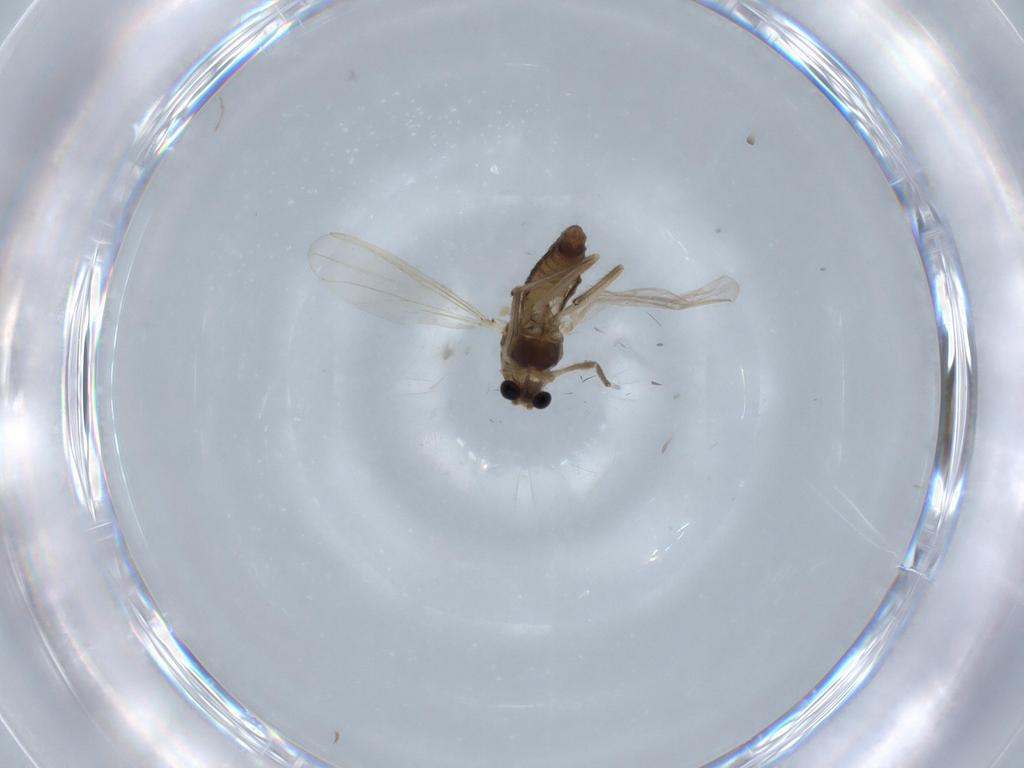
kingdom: Animalia
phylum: Arthropoda
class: Insecta
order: Diptera
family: Chironomidae
